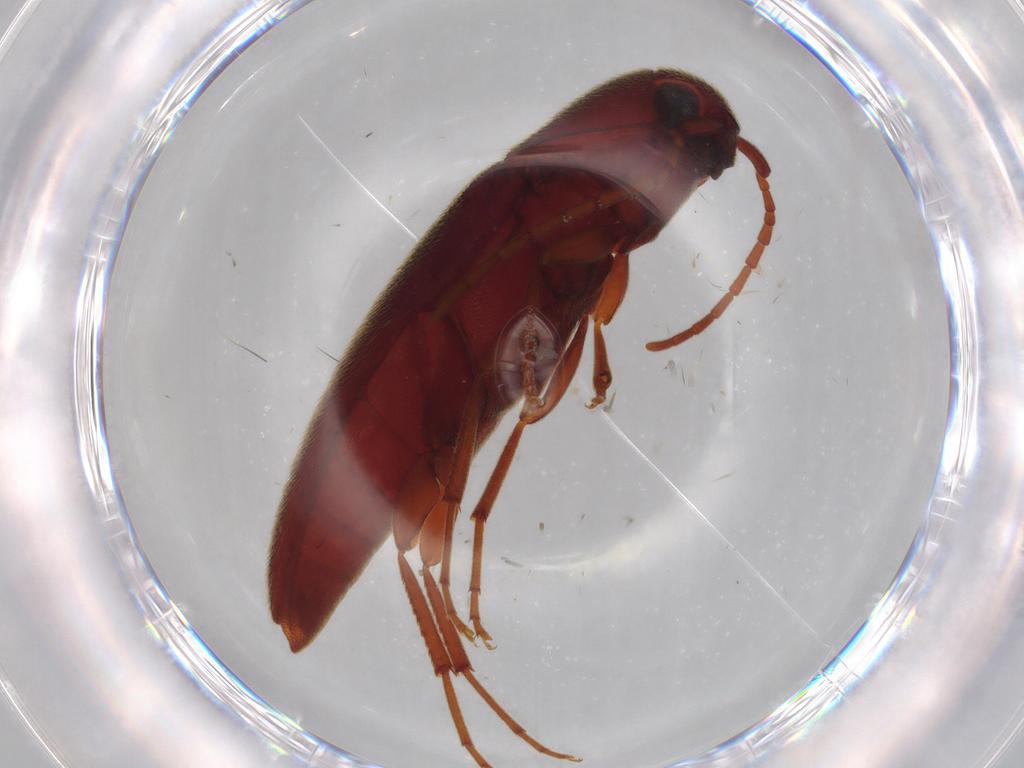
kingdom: Animalia
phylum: Arthropoda
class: Insecta
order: Coleoptera
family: Eucnemidae
